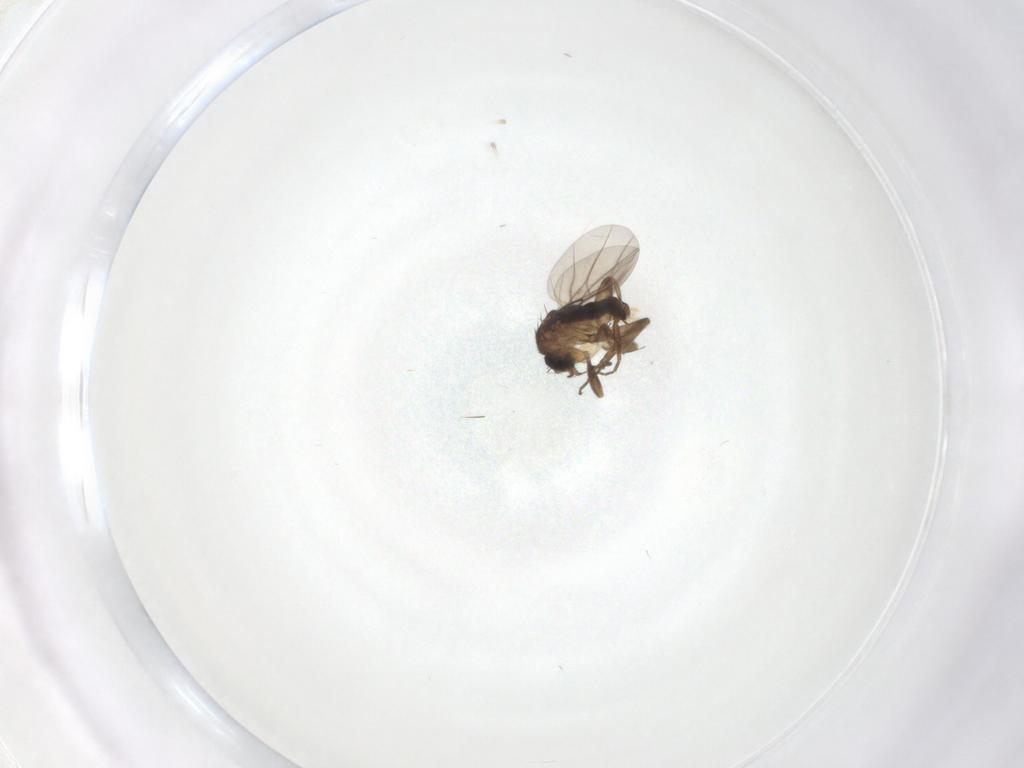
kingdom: Animalia
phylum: Arthropoda
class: Insecta
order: Diptera
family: Phoridae
